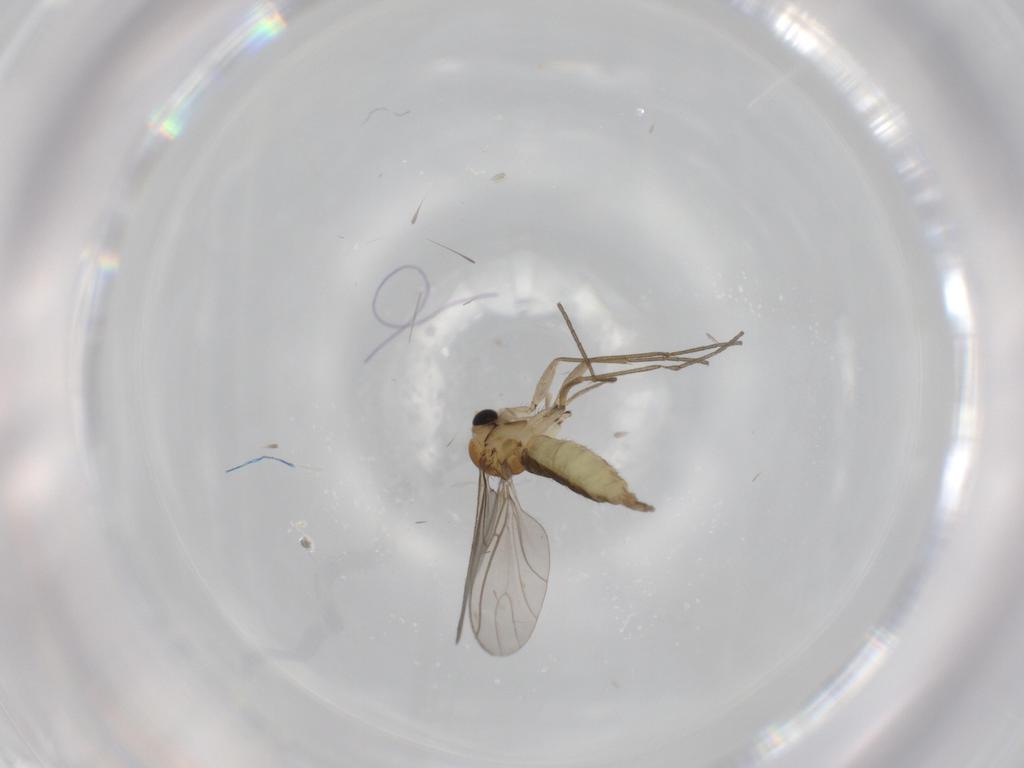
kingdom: Animalia
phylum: Arthropoda
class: Insecta
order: Diptera
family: Sciaridae
